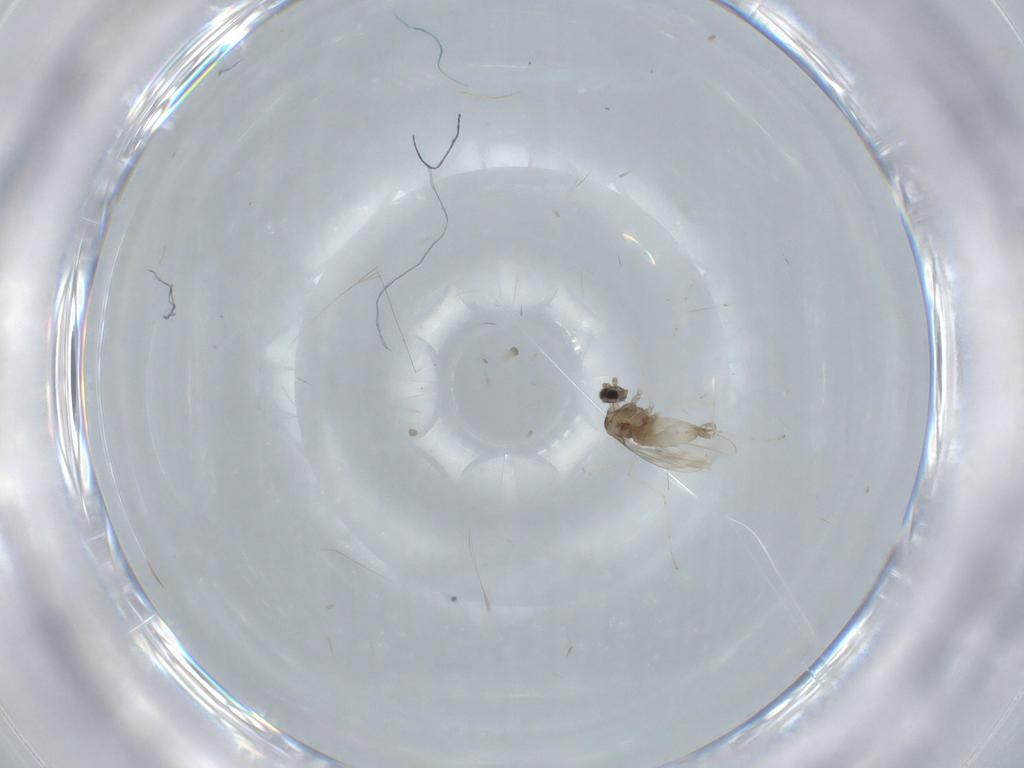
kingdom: Animalia
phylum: Arthropoda
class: Insecta
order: Diptera
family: Cecidomyiidae
